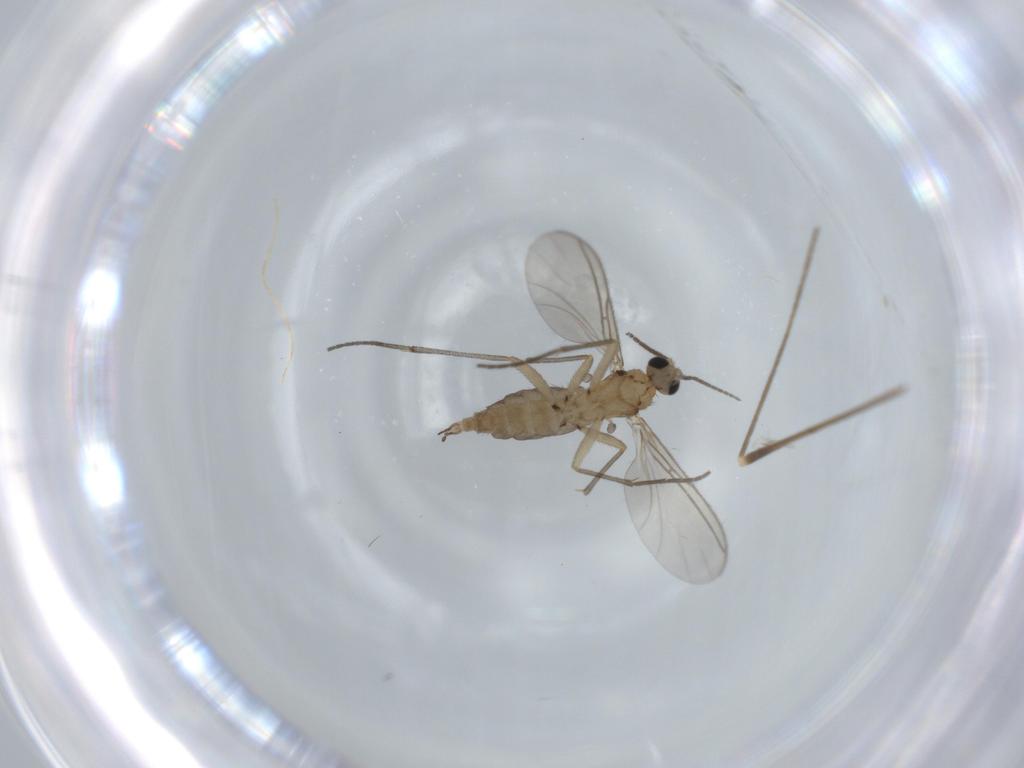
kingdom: Animalia
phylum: Arthropoda
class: Insecta
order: Diptera
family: Limoniidae
